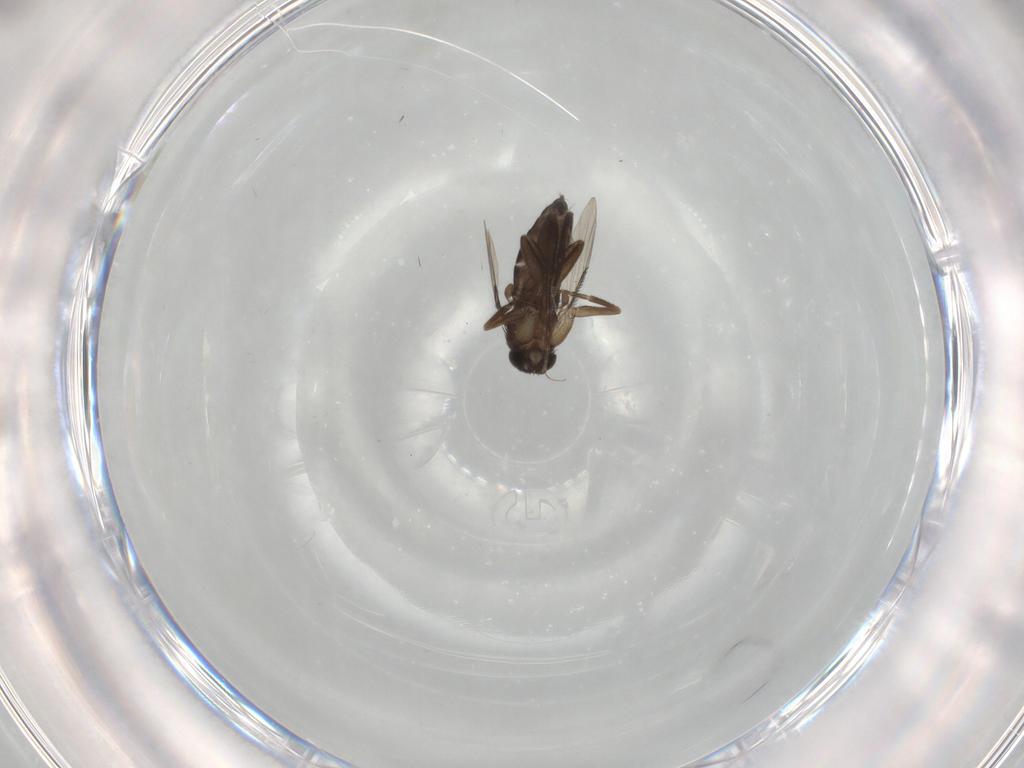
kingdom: Animalia
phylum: Arthropoda
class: Insecta
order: Diptera
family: Phoridae
